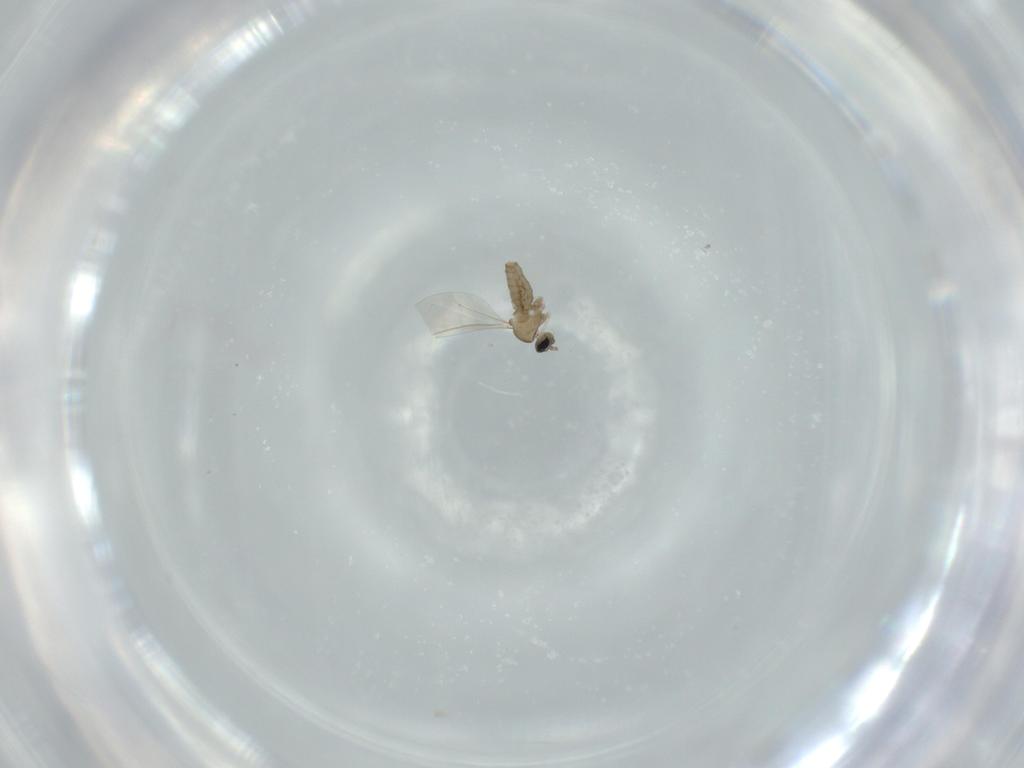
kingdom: Animalia
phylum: Arthropoda
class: Insecta
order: Diptera
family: Cecidomyiidae
